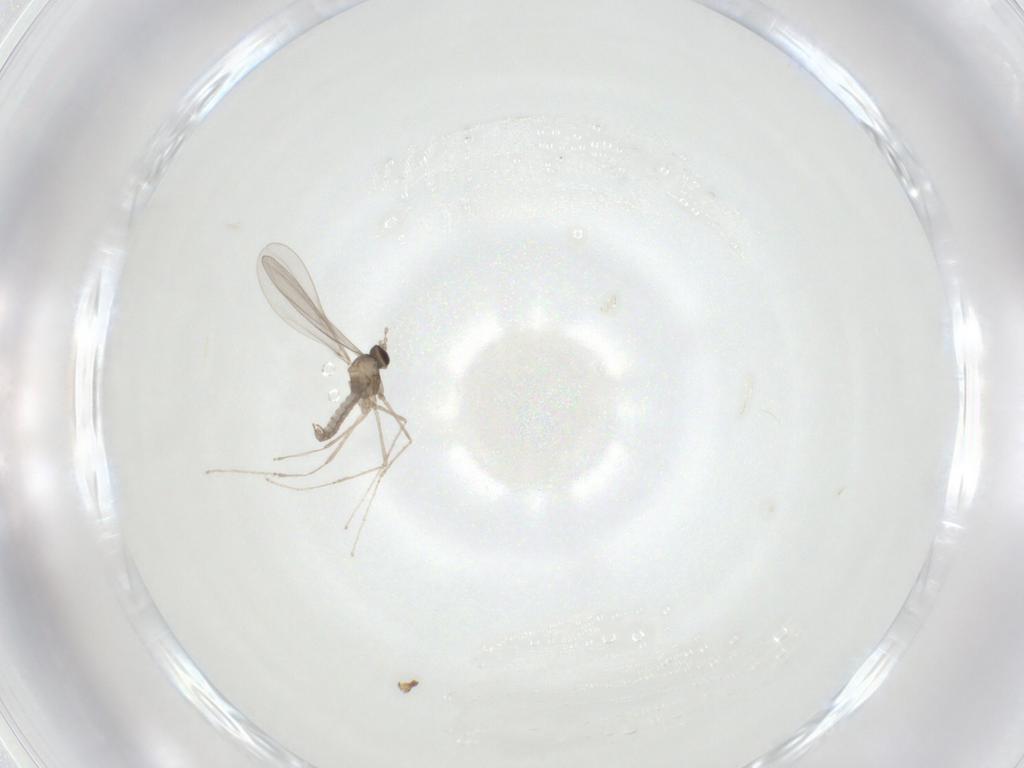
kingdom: Animalia
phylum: Arthropoda
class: Insecta
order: Diptera
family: Cecidomyiidae
